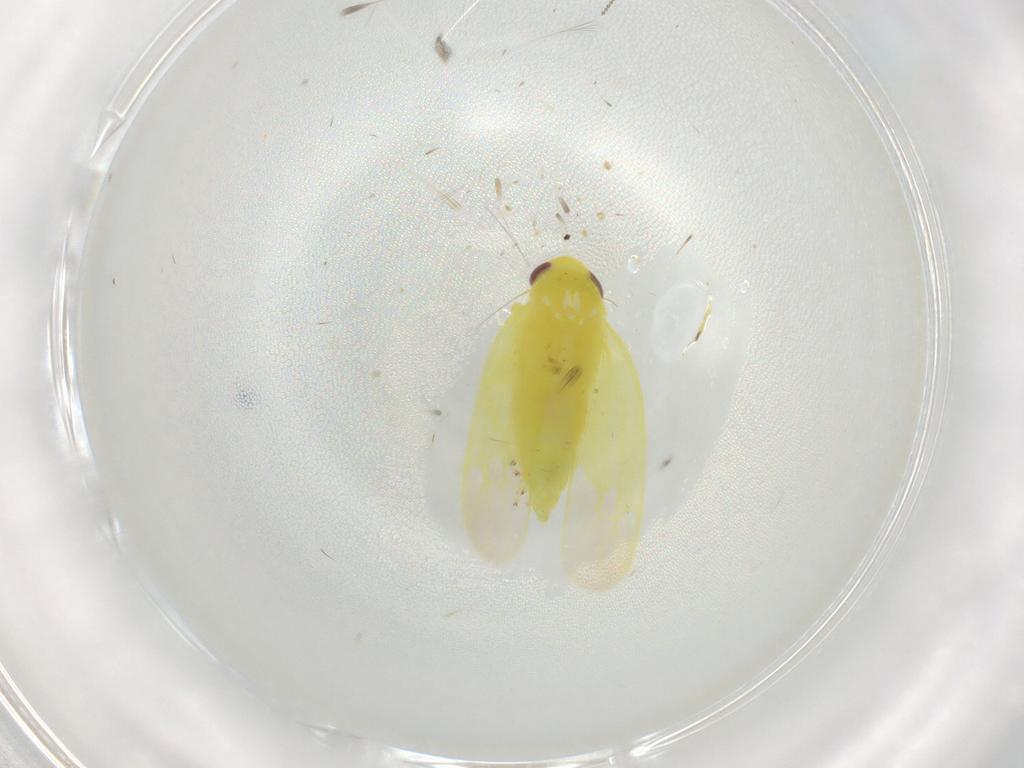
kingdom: Animalia
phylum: Arthropoda
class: Insecta
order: Hemiptera
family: Cicadellidae
